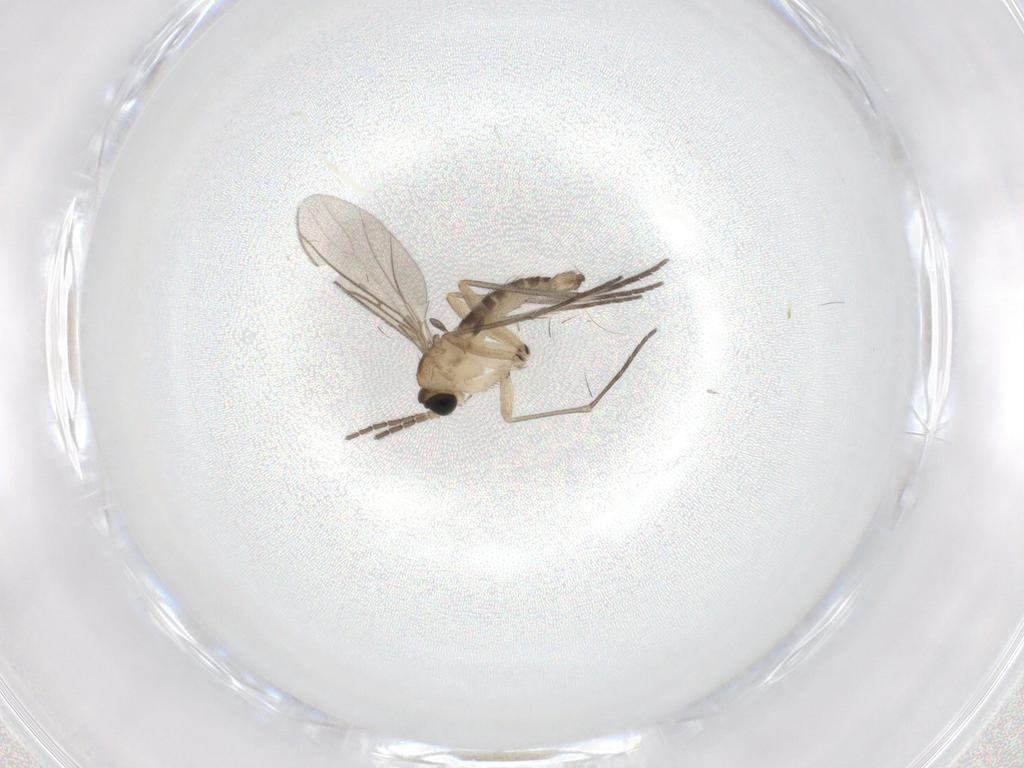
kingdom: Animalia
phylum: Arthropoda
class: Insecta
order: Diptera
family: Sciaridae
